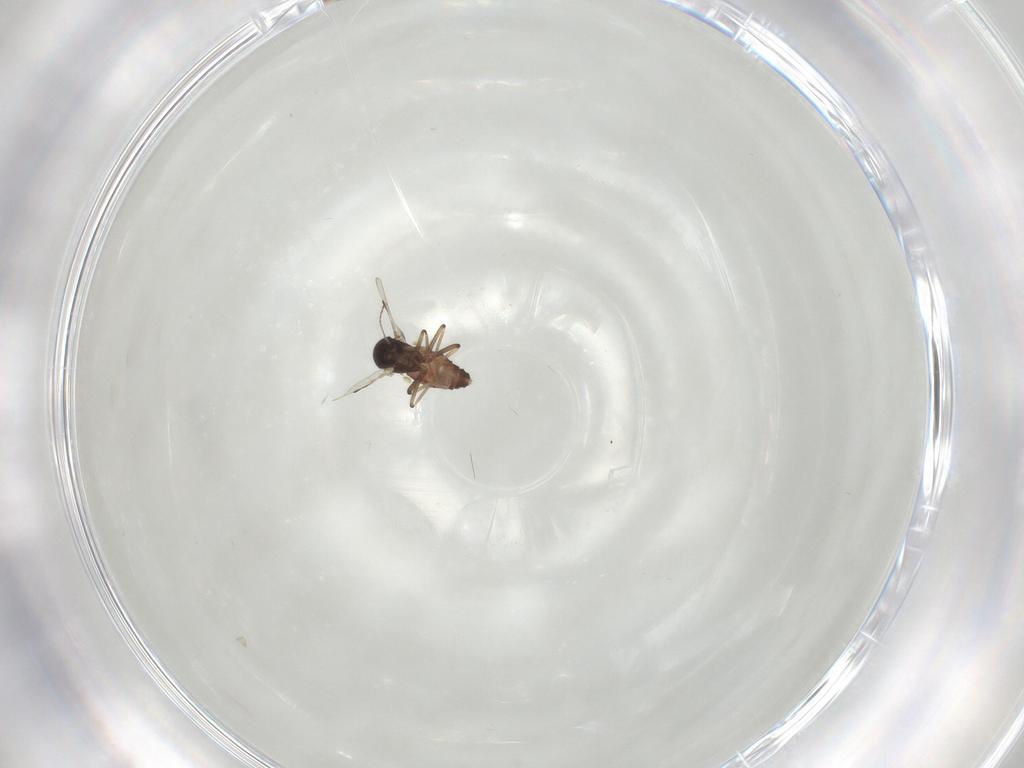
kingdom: Animalia
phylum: Arthropoda
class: Insecta
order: Diptera
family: Ceratopogonidae
